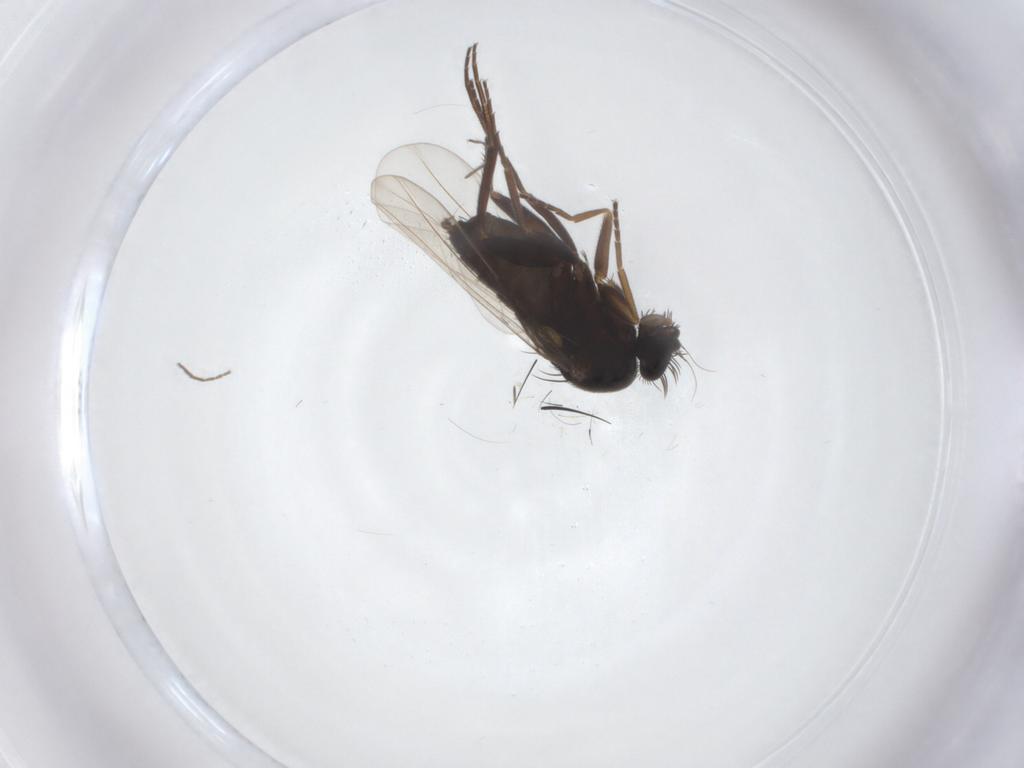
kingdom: Animalia
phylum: Arthropoda
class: Insecta
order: Diptera
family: Phoridae
